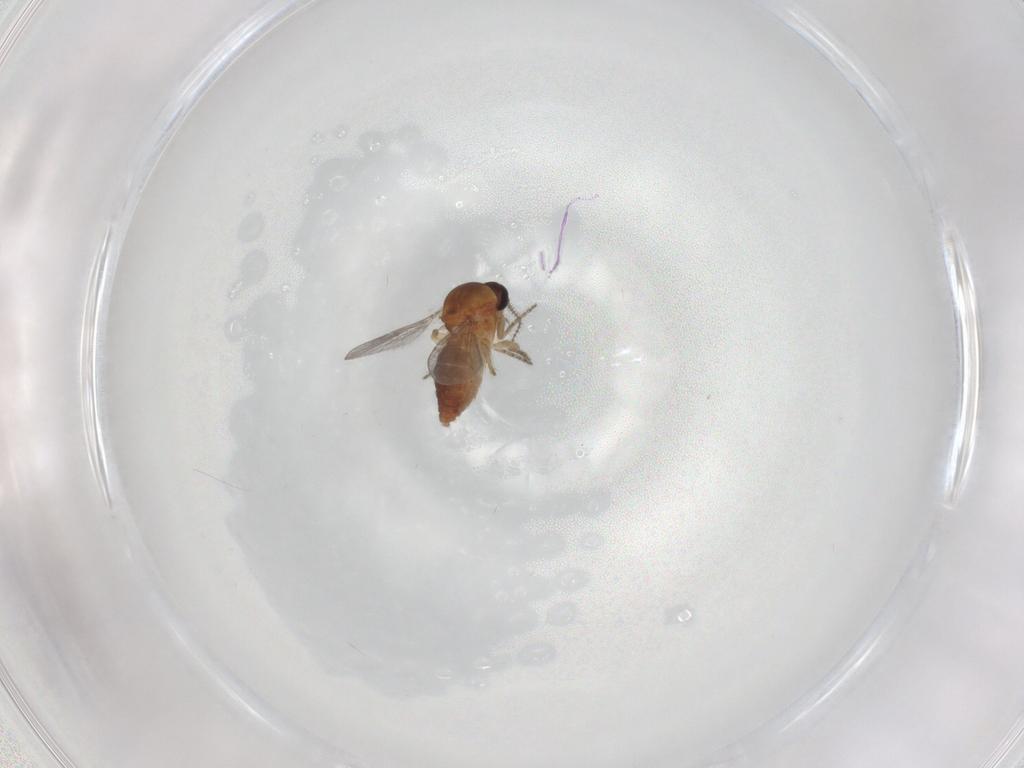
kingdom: Animalia
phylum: Arthropoda
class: Insecta
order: Diptera
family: Ceratopogonidae
